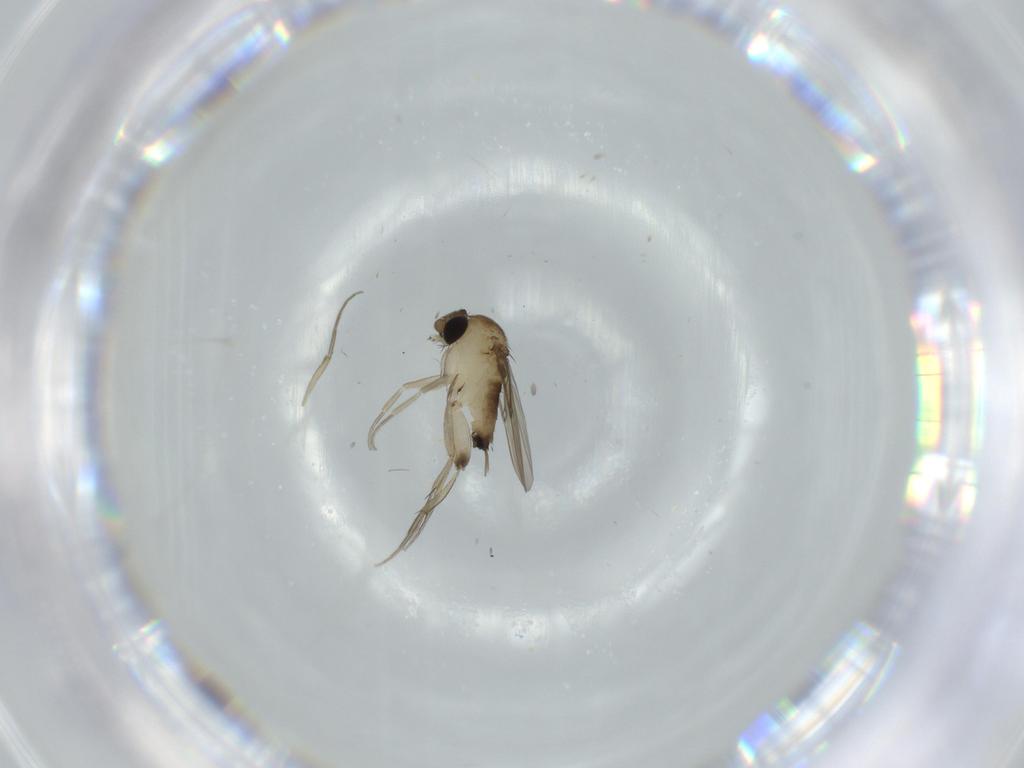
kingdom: Animalia
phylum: Arthropoda
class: Insecta
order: Diptera
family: Phoridae
